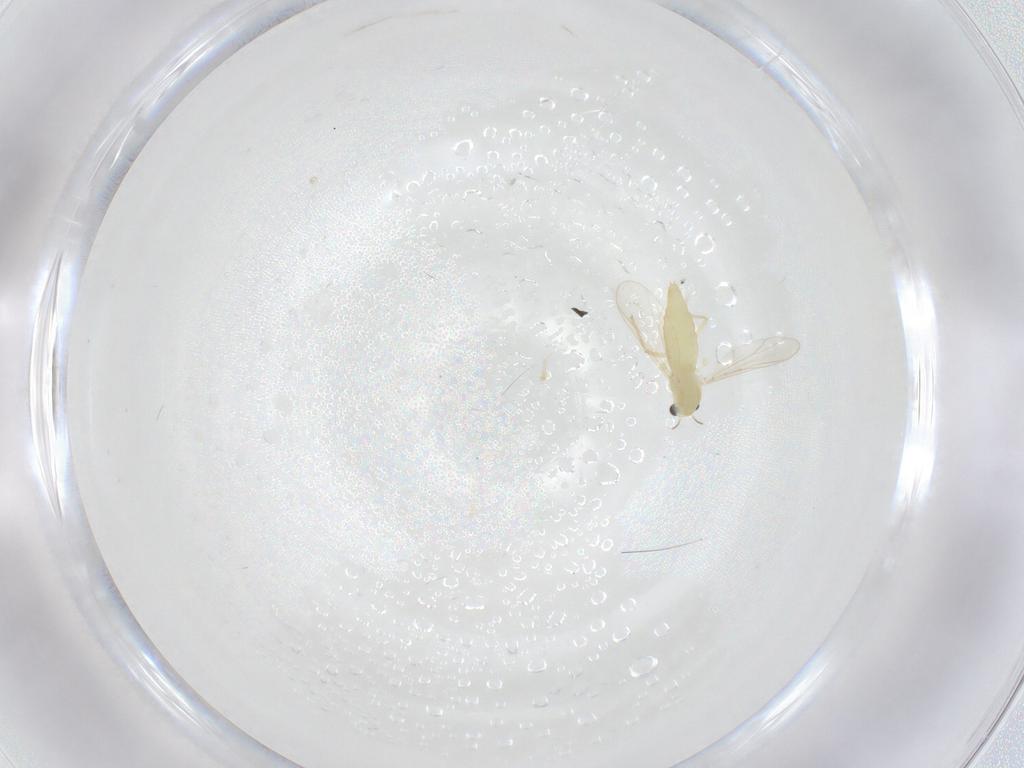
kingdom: Animalia
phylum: Arthropoda
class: Insecta
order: Diptera
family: Chironomidae
